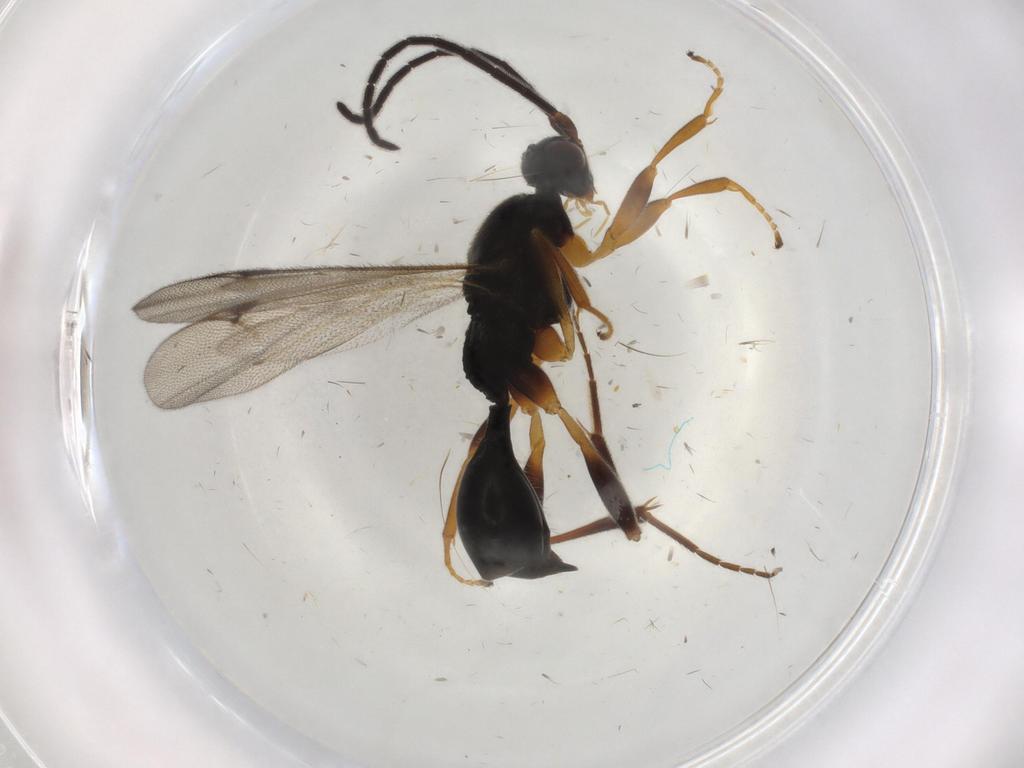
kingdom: Animalia
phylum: Arthropoda
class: Insecta
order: Hymenoptera
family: Proctotrupidae
